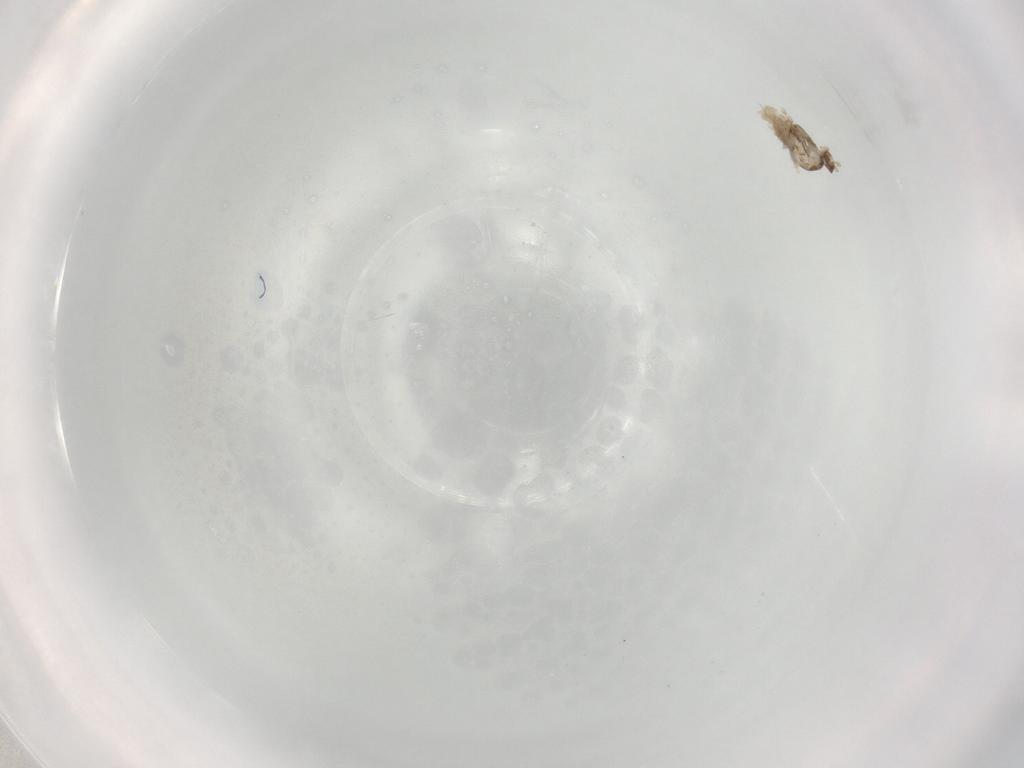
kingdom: Animalia
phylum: Arthropoda
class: Insecta
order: Diptera
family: Cecidomyiidae
